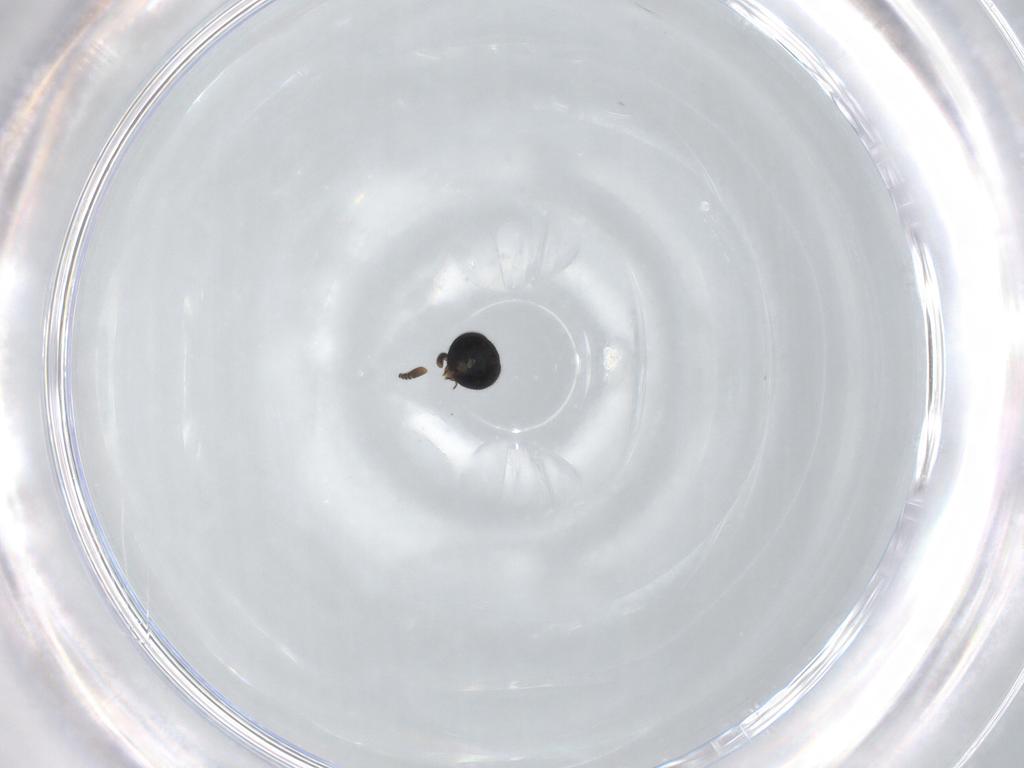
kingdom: Animalia
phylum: Arthropoda
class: Insecta
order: Hymenoptera
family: Encyrtidae
